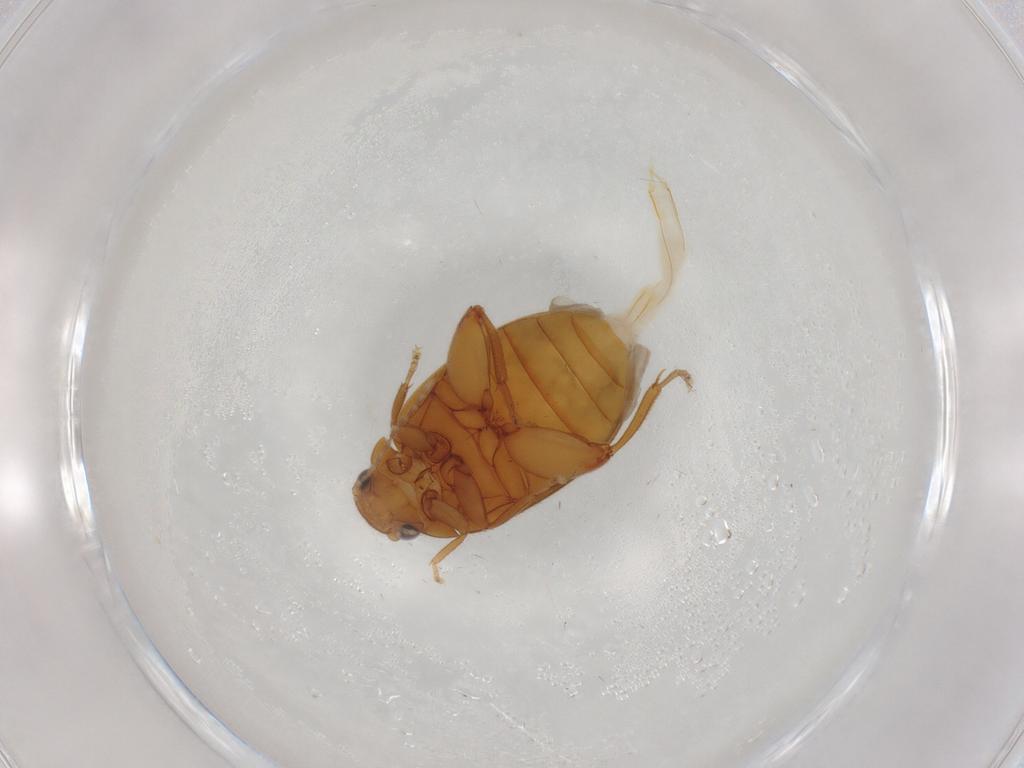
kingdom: Animalia
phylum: Arthropoda
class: Insecta
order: Coleoptera
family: Scirtidae
